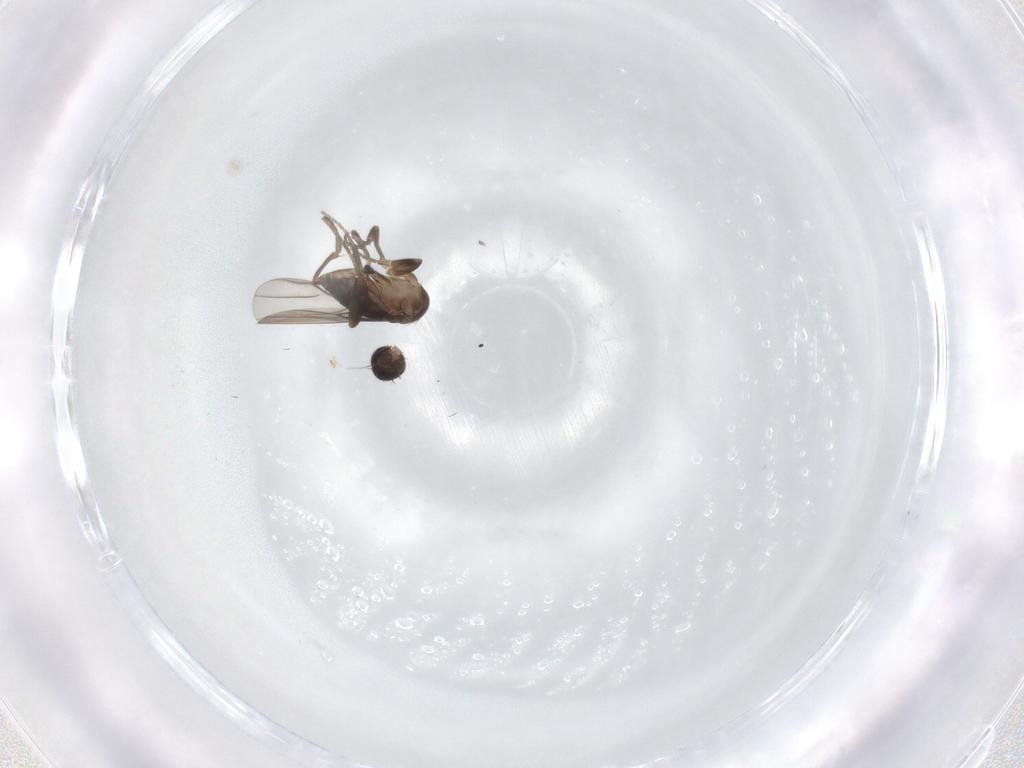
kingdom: Animalia
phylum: Arthropoda
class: Insecta
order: Diptera
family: Phoridae
